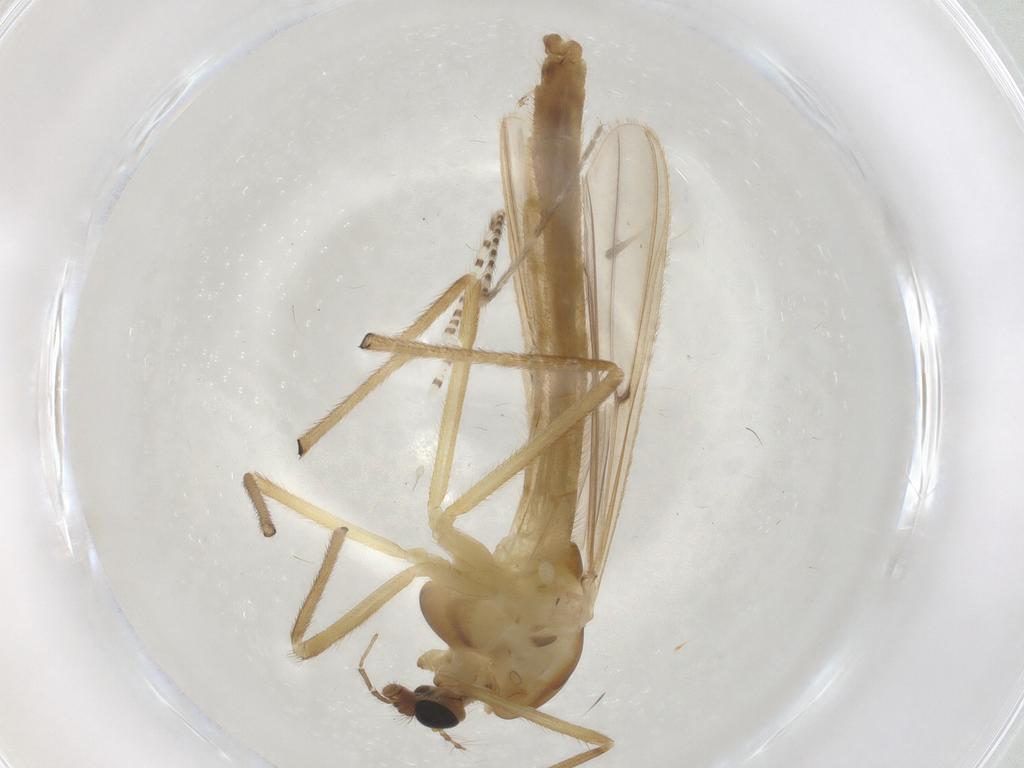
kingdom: Animalia
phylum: Arthropoda
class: Insecta
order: Diptera
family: Chironomidae
